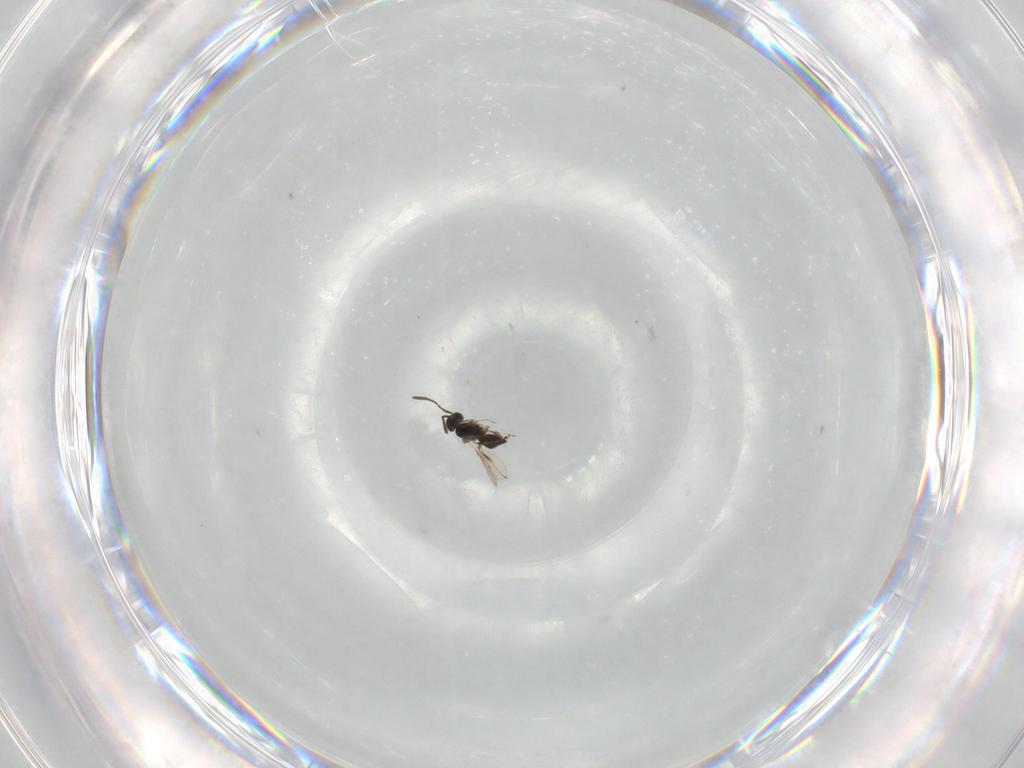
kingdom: Animalia
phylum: Arthropoda
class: Insecta
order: Hymenoptera
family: Scelionidae
